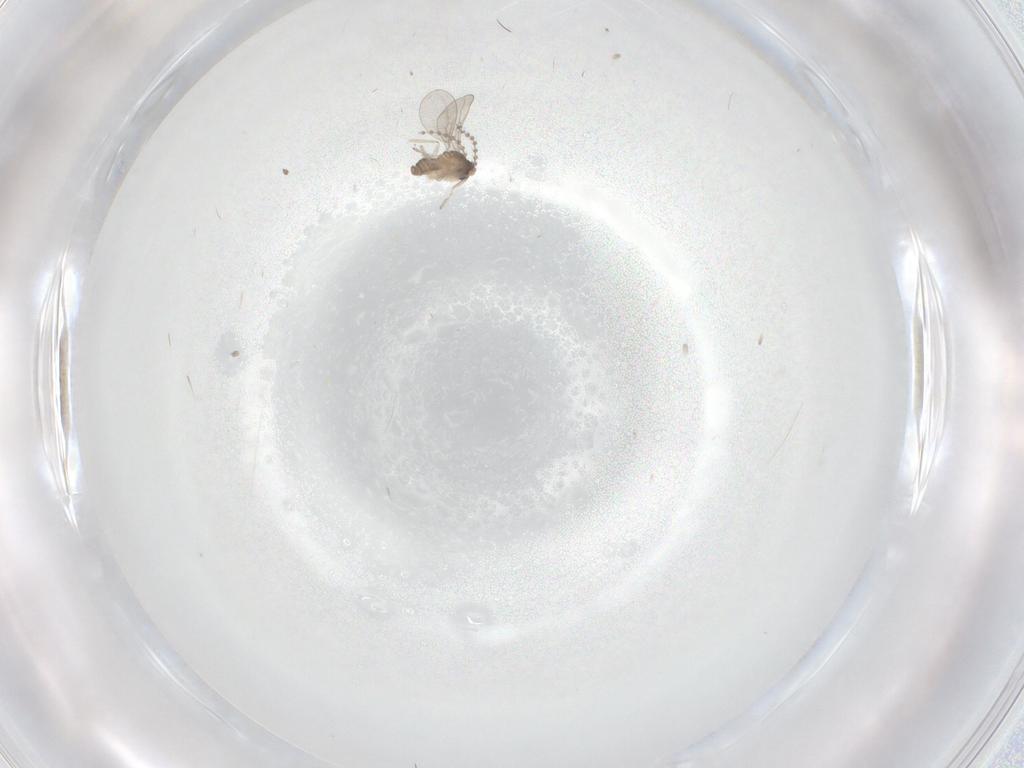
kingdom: Animalia
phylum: Arthropoda
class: Insecta
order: Diptera
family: Cecidomyiidae
